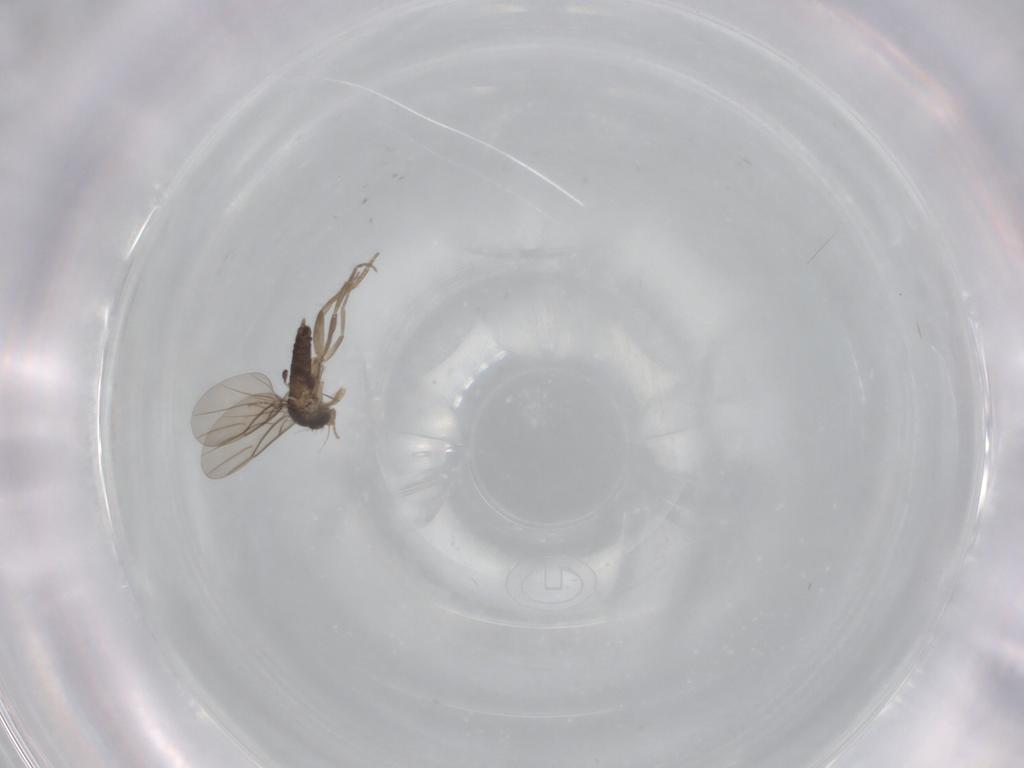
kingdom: Animalia
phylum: Arthropoda
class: Insecta
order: Diptera
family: Phoridae
